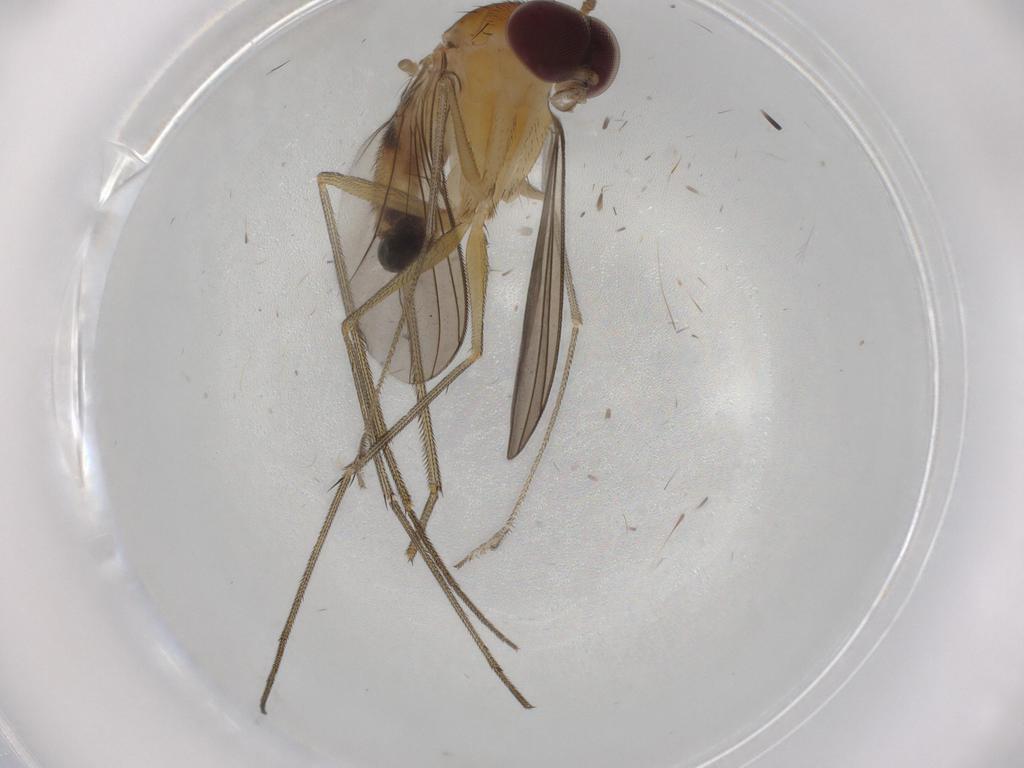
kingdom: Animalia
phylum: Arthropoda
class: Insecta
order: Diptera
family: Dolichopodidae
